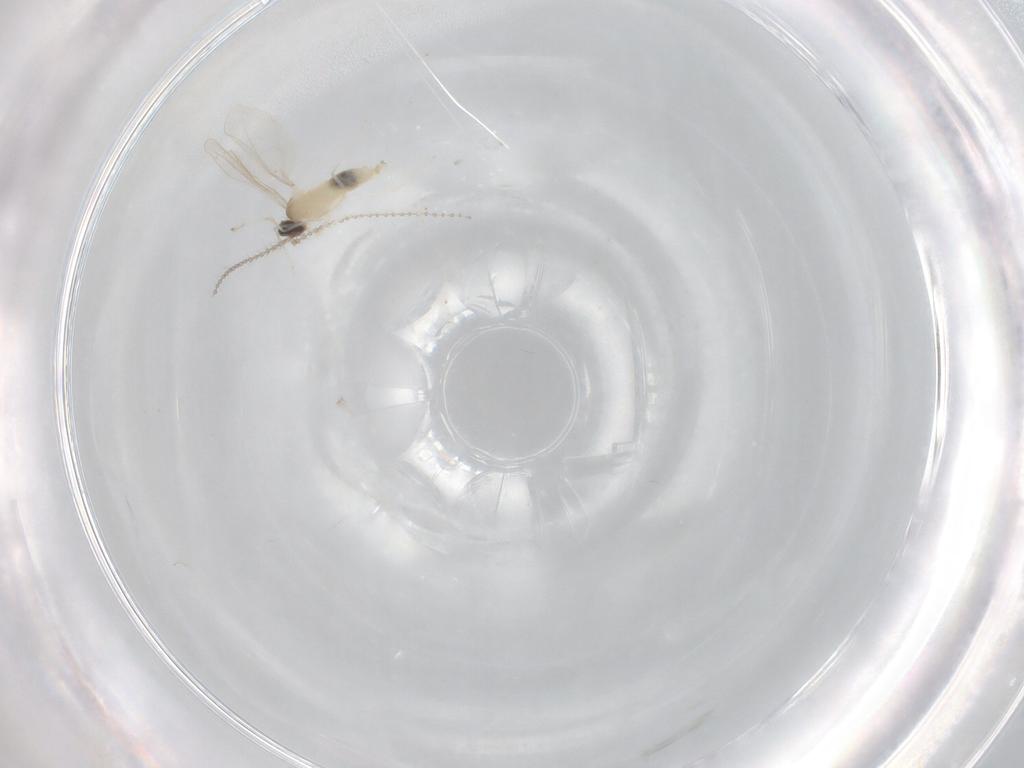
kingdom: Animalia
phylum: Arthropoda
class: Insecta
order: Diptera
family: Cecidomyiidae
